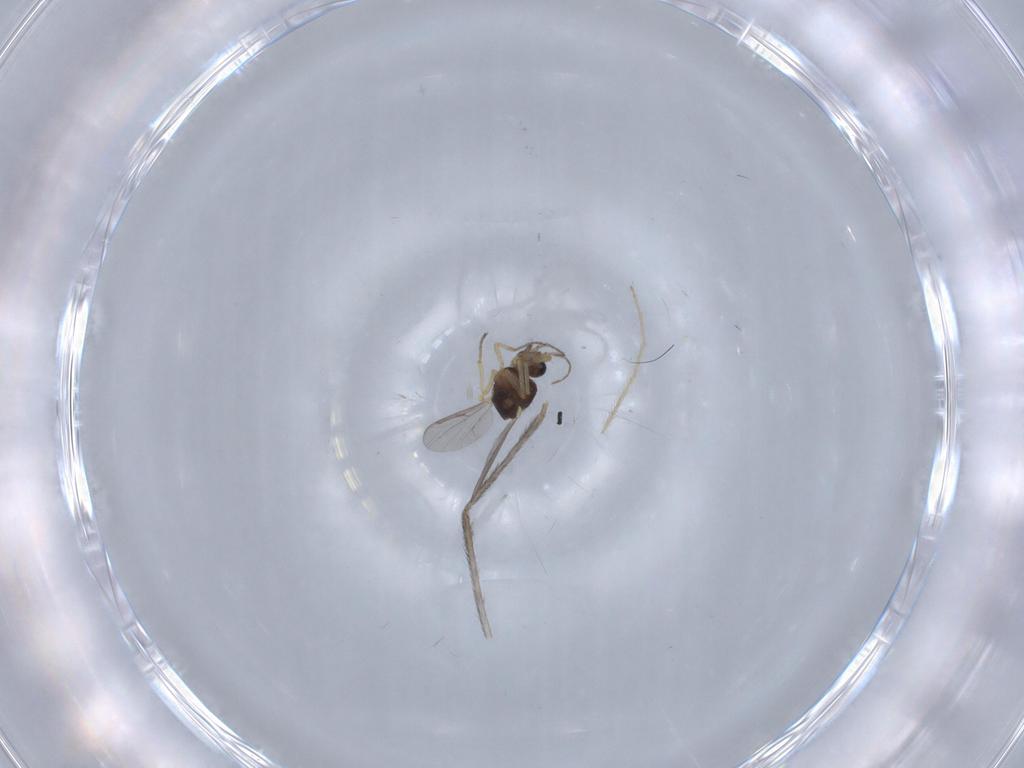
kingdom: Animalia
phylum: Arthropoda
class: Insecta
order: Diptera
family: Ceratopogonidae
